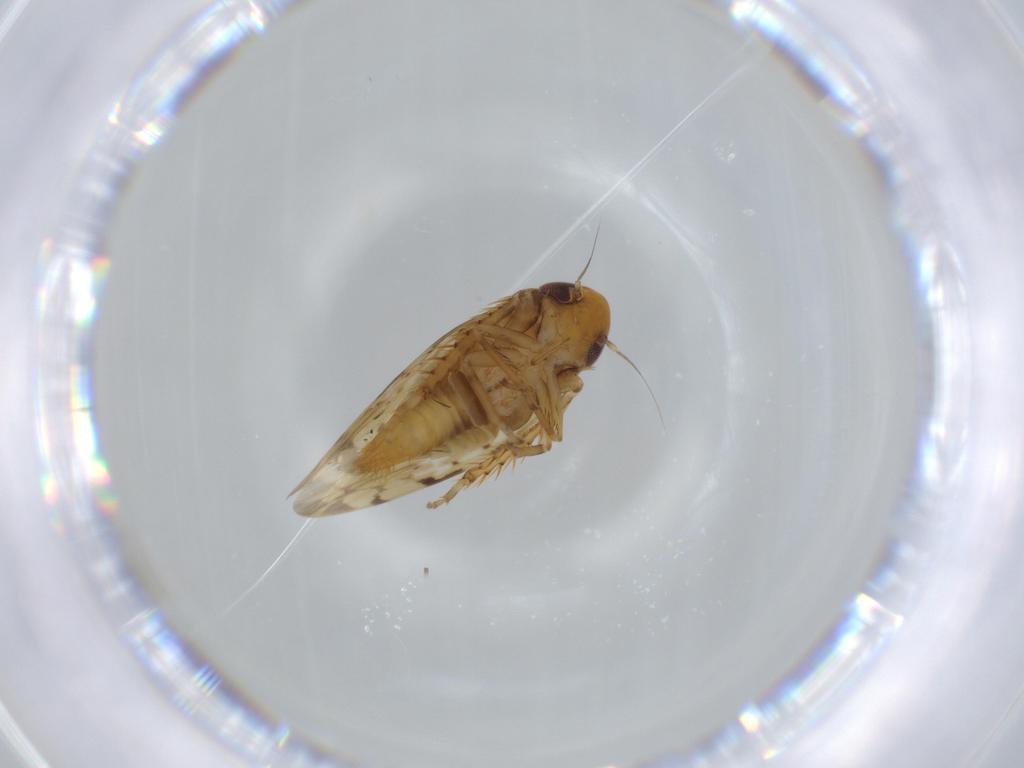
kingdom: Animalia
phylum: Arthropoda
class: Insecta
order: Hemiptera
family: Cicadellidae
